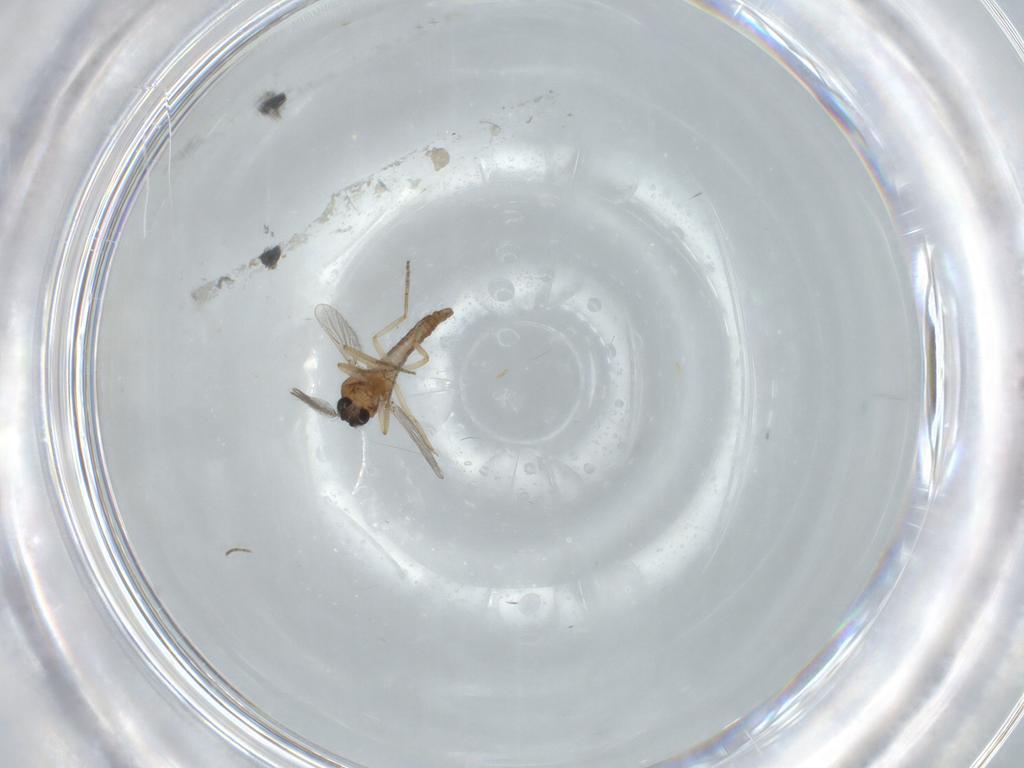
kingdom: Animalia
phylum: Arthropoda
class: Insecta
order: Diptera
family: Ceratopogonidae
